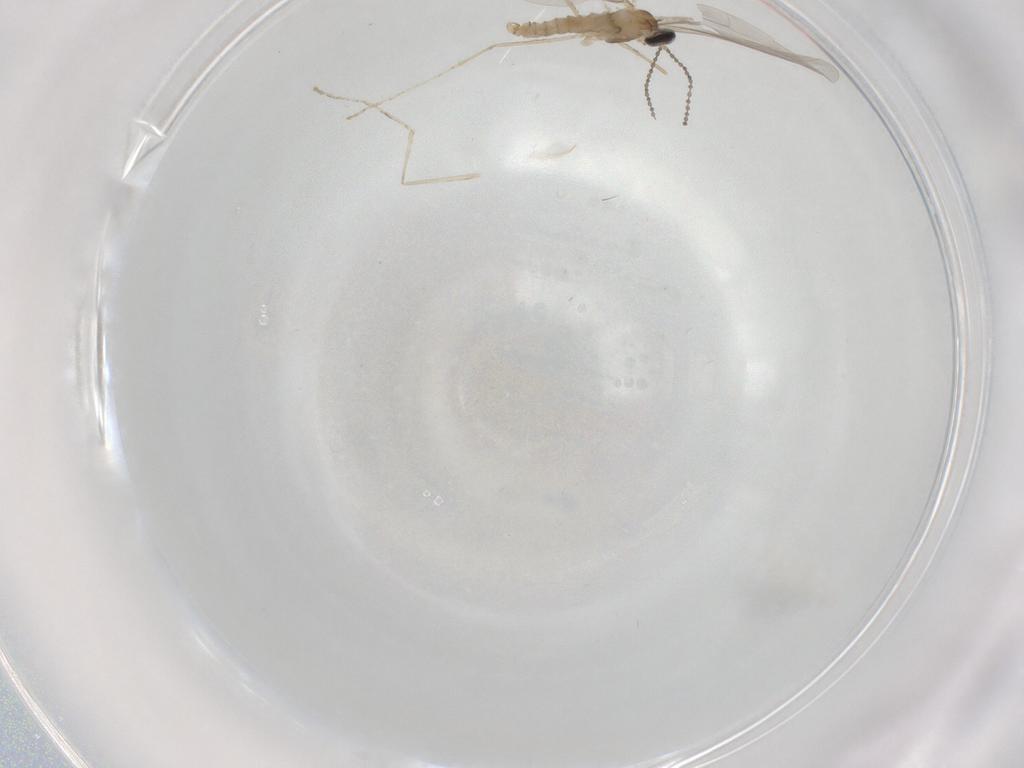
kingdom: Animalia
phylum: Arthropoda
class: Insecta
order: Diptera
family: Cecidomyiidae
